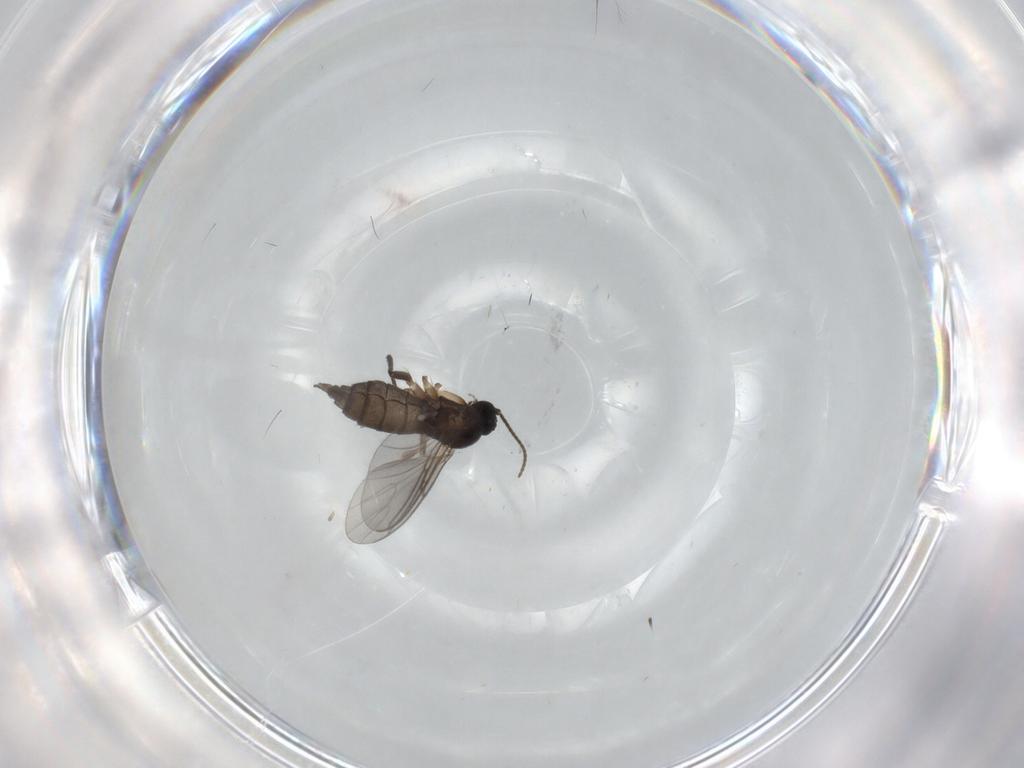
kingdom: Animalia
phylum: Arthropoda
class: Insecta
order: Diptera
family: Sciaridae
